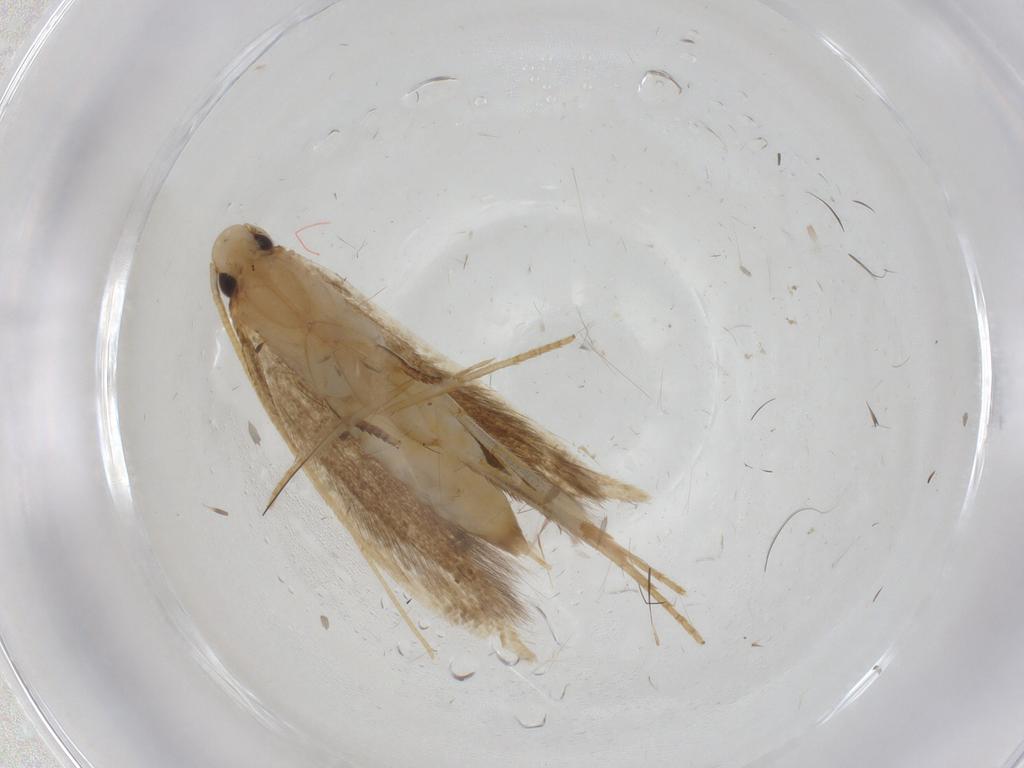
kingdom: Animalia
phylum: Arthropoda
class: Insecta
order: Lepidoptera
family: Tineidae
